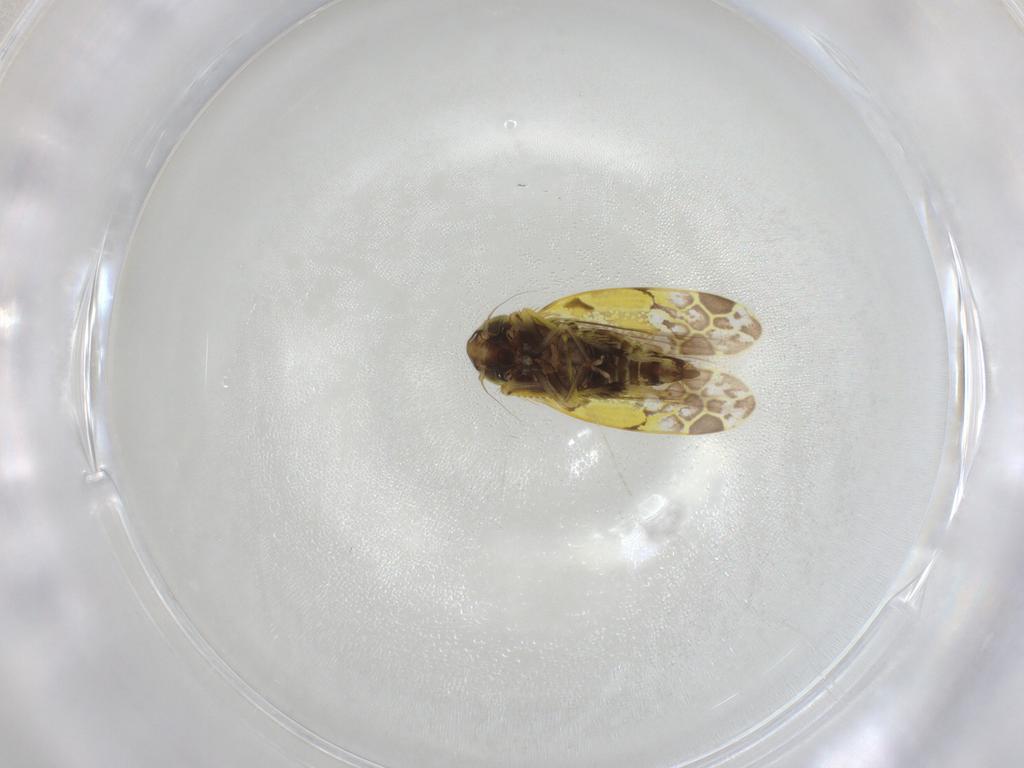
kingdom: Animalia
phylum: Arthropoda
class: Insecta
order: Hemiptera
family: Cicadellidae
